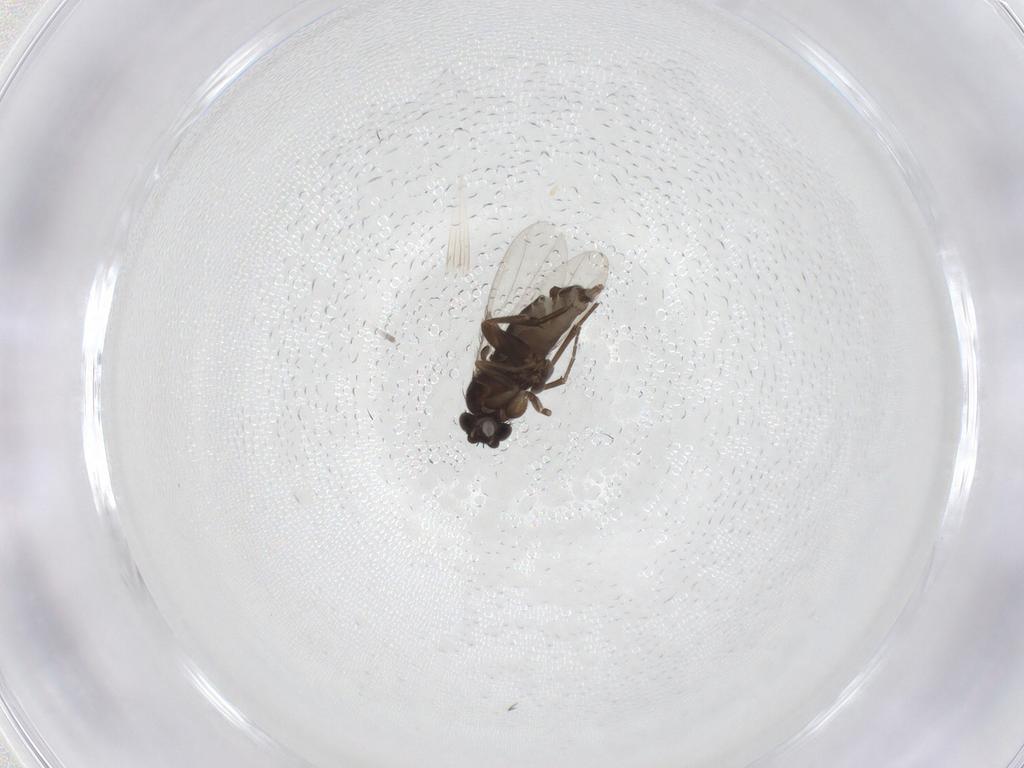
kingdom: Animalia
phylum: Arthropoda
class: Insecta
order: Diptera
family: Phoridae
